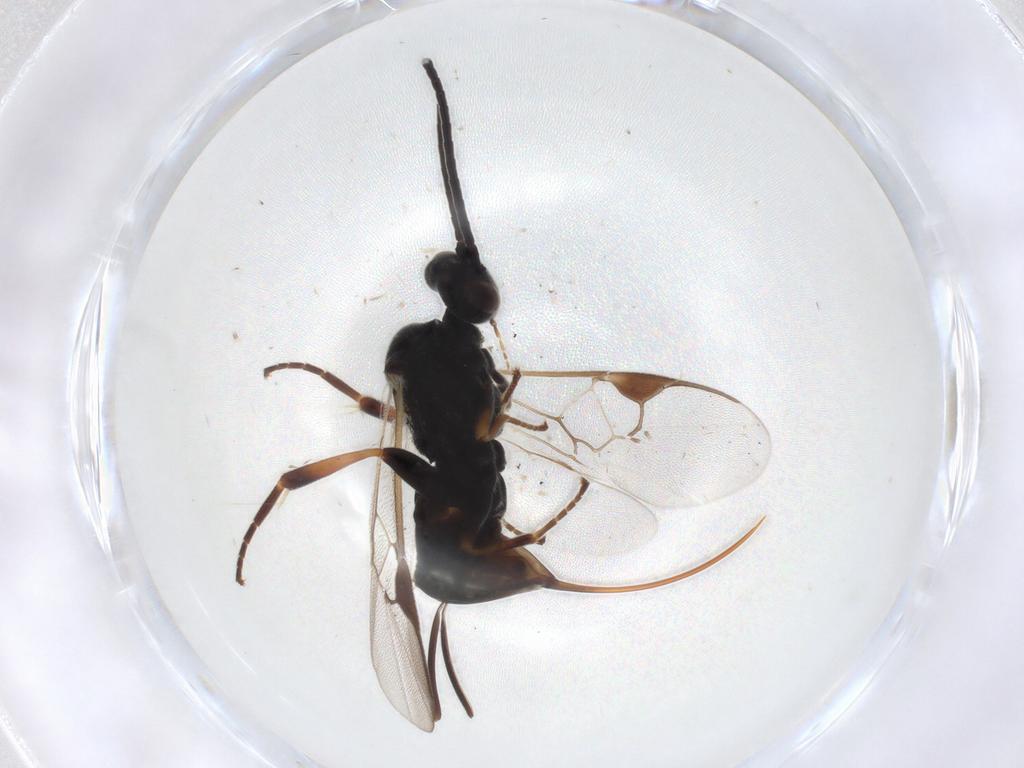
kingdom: Animalia
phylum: Arthropoda
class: Insecta
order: Hymenoptera
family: Braconidae
